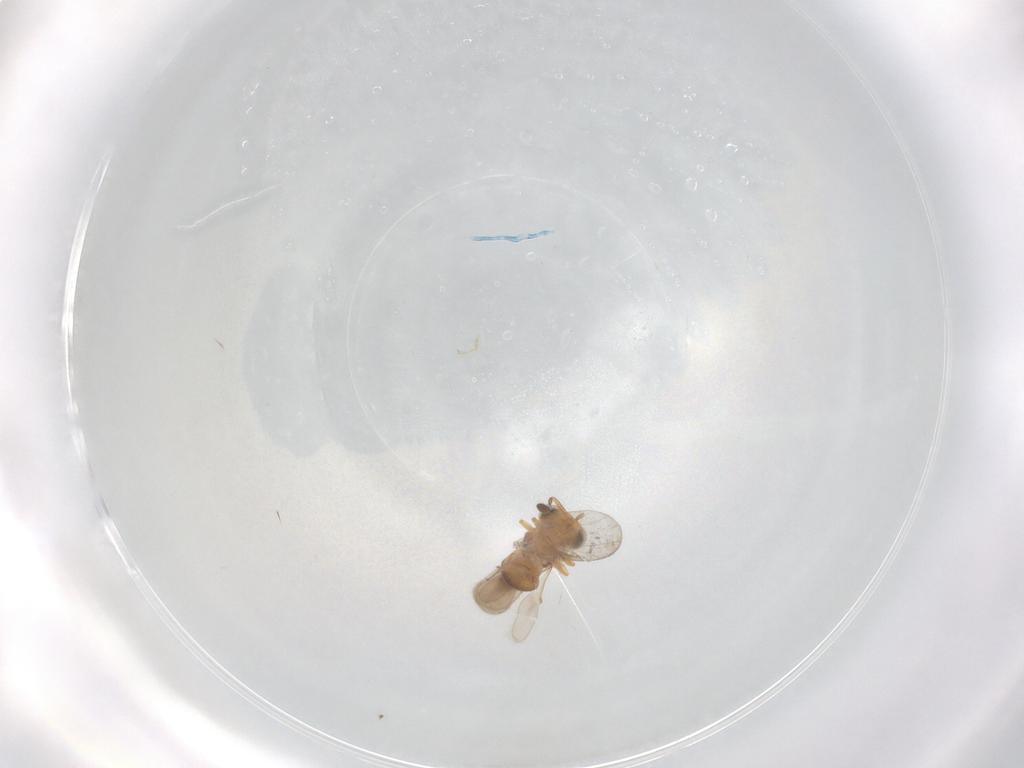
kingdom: Animalia
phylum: Arthropoda
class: Insecta
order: Hymenoptera
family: Scelionidae
